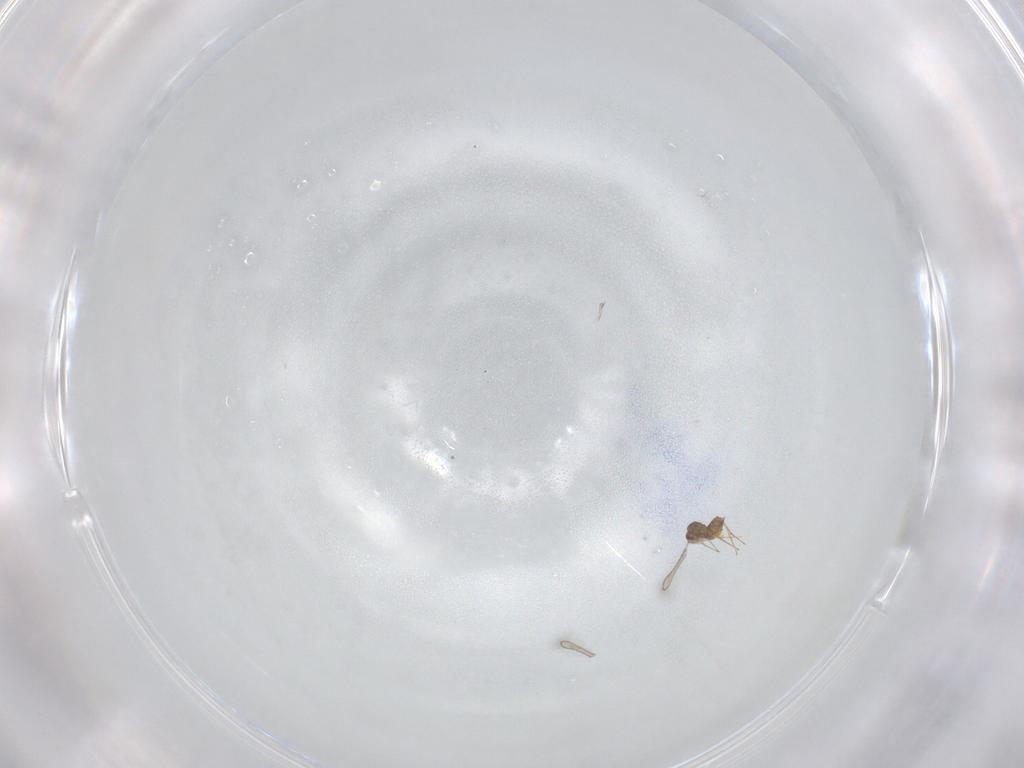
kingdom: Animalia
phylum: Arthropoda
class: Insecta
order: Hymenoptera
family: Mymaridae
